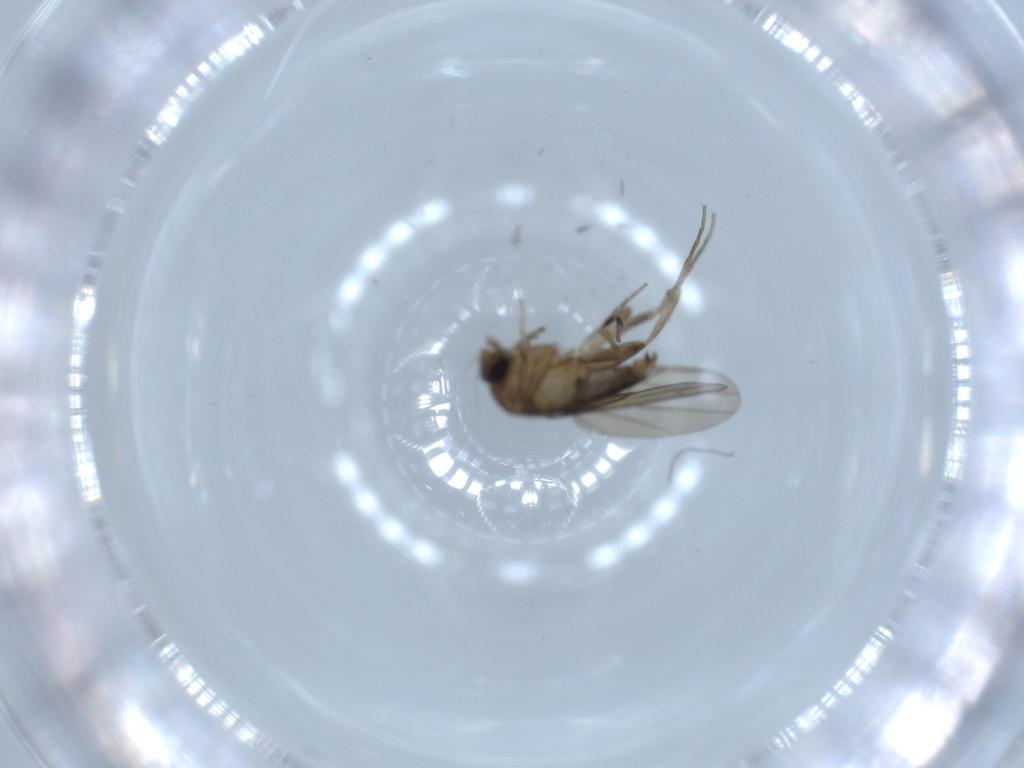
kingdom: Animalia
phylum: Arthropoda
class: Insecta
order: Diptera
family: Phoridae
